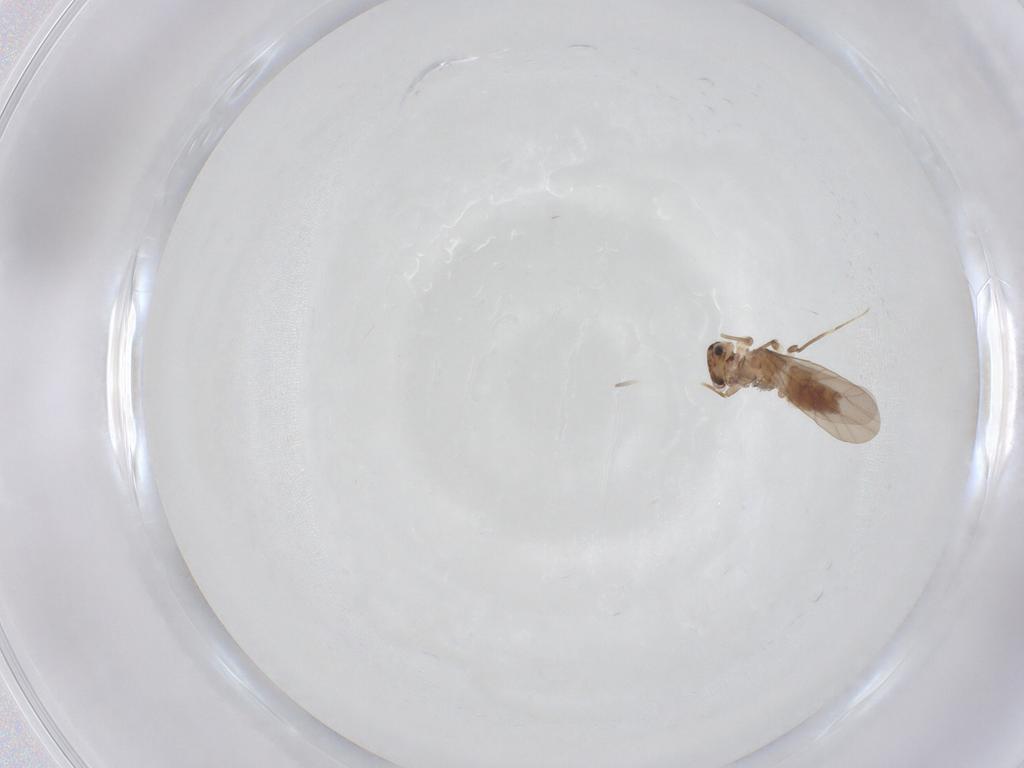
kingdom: Animalia
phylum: Arthropoda
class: Insecta
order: Psocodea
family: Lepidopsocidae
